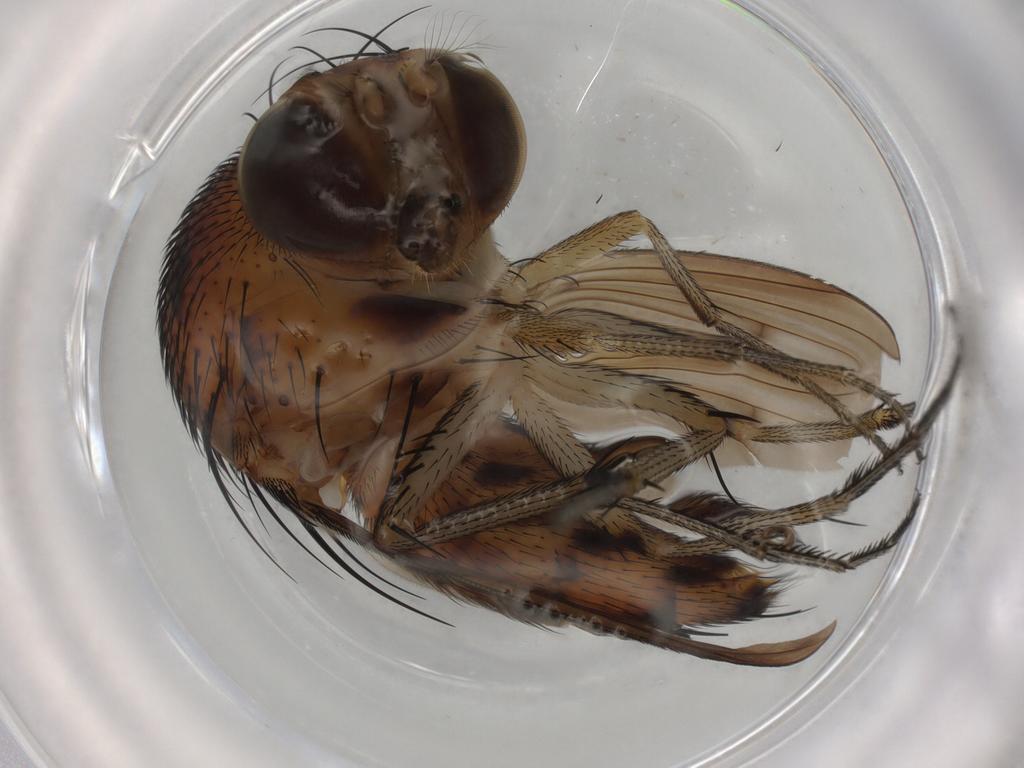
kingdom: Animalia
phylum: Arthropoda
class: Insecta
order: Diptera
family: Curtonotidae
